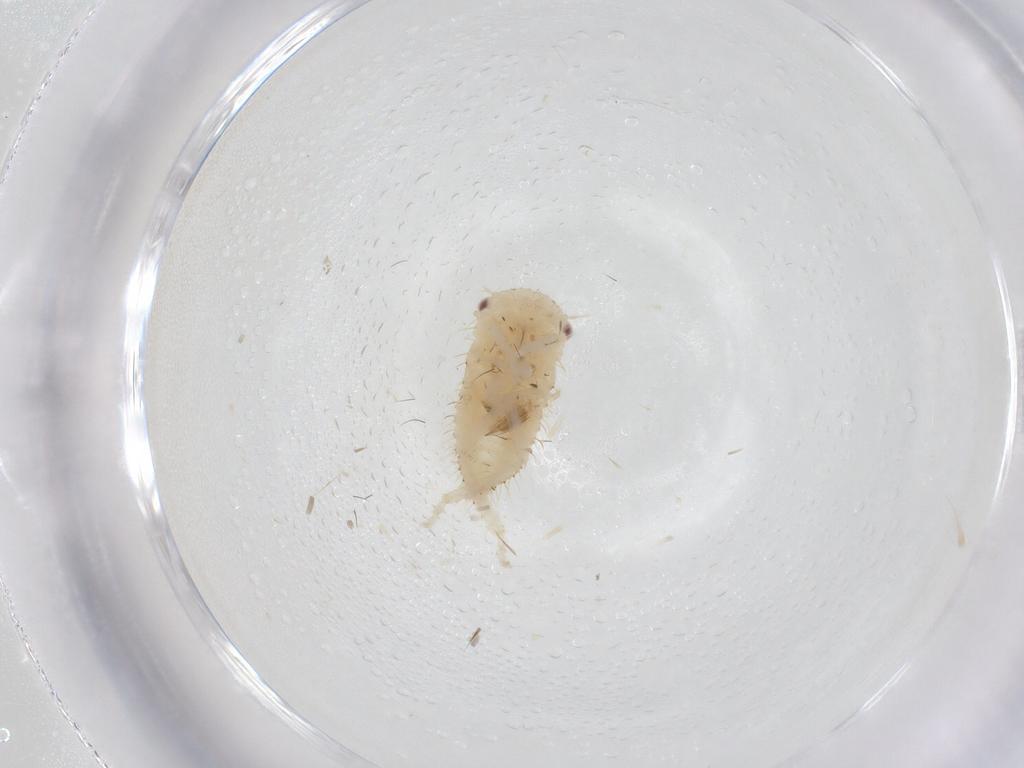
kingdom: Animalia
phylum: Arthropoda
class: Insecta
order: Hemiptera
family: Cicadellidae
